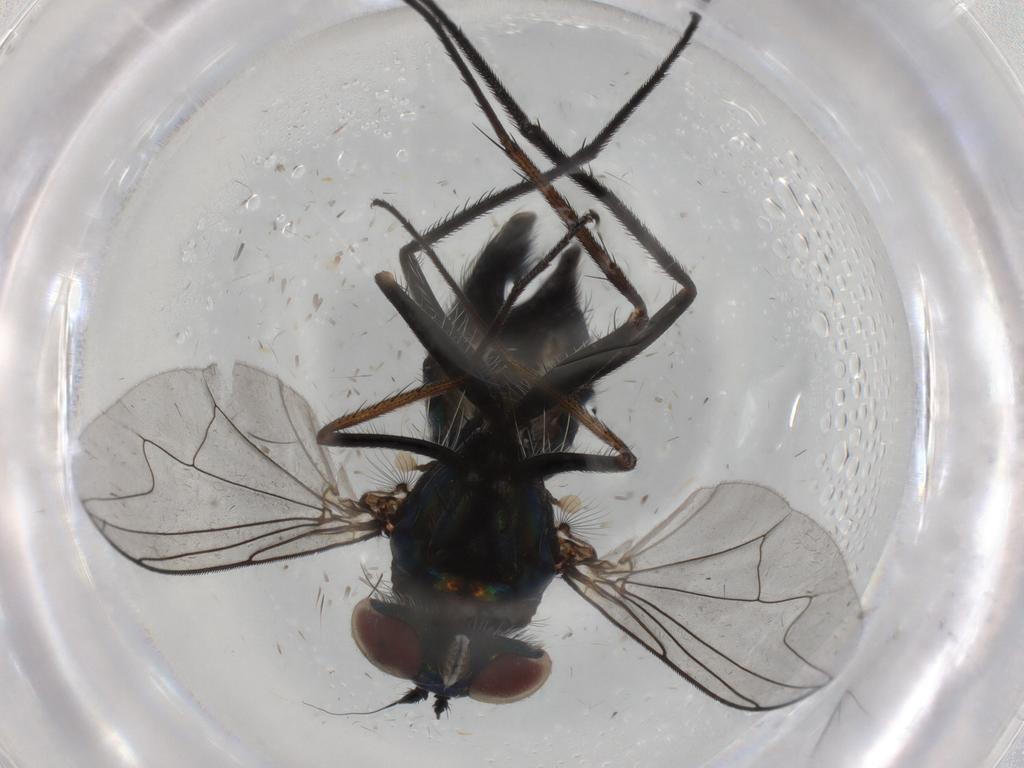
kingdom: Animalia
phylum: Arthropoda
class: Insecta
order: Diptera
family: Dolichopodidae
